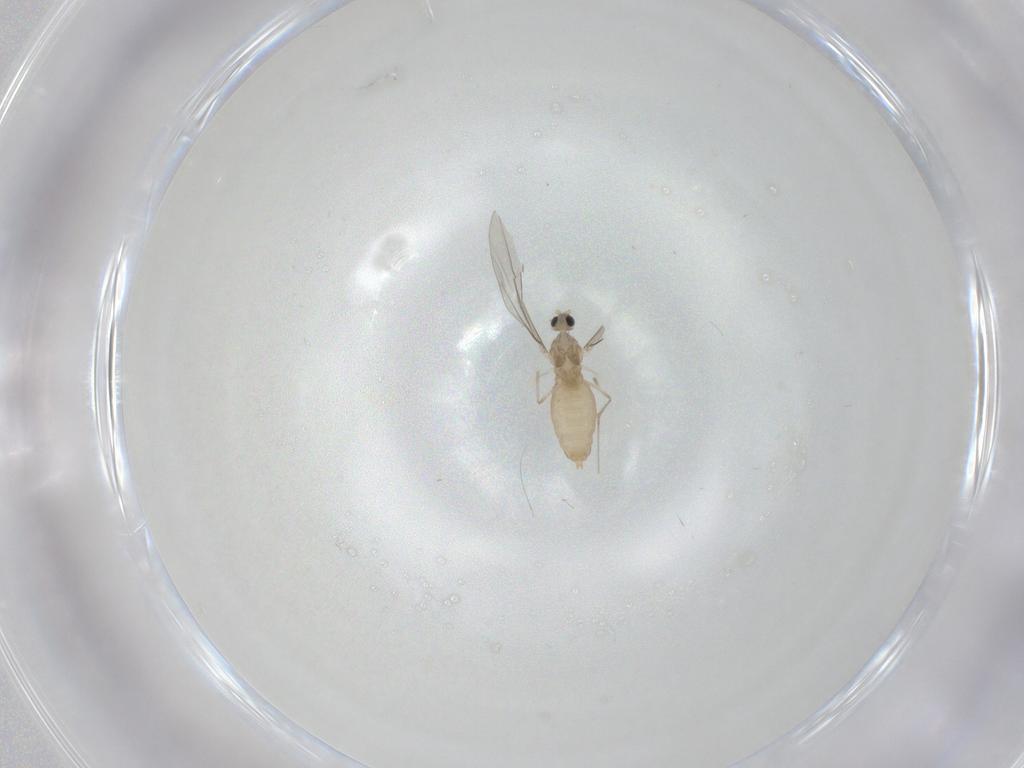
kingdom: Animalia
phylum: Arthropoda
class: Insecta
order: Diptera
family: Cecidomyiidae
